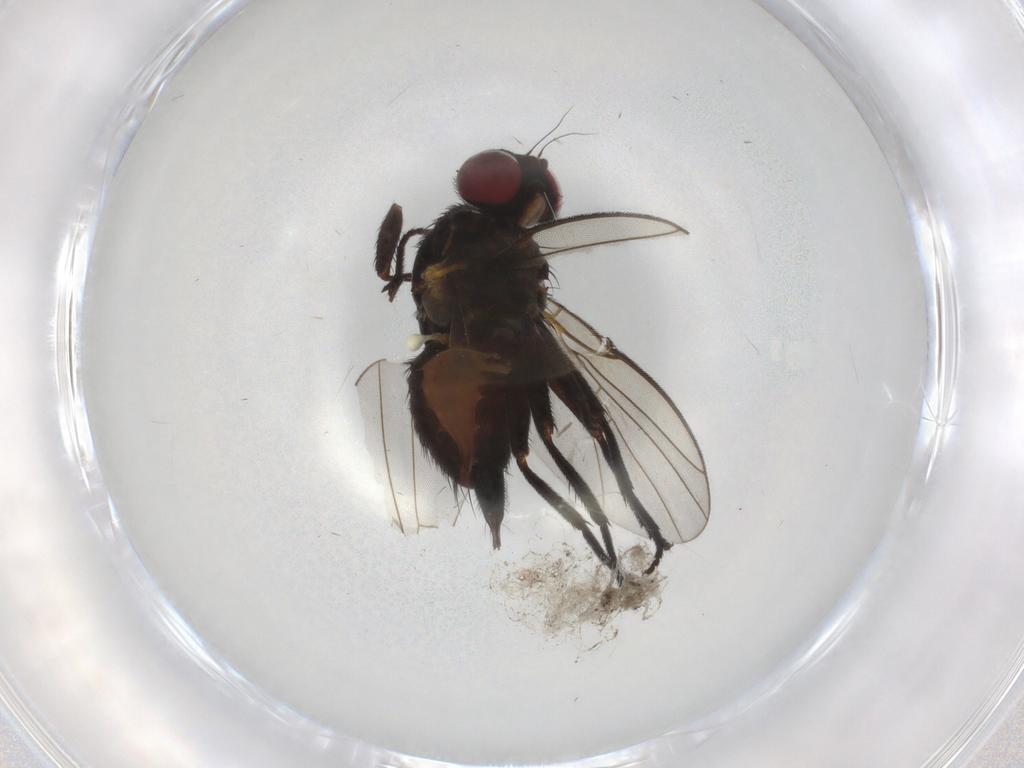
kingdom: Animalia
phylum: Arthropoda
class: Insecta
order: Diptera
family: Agromyzidae
